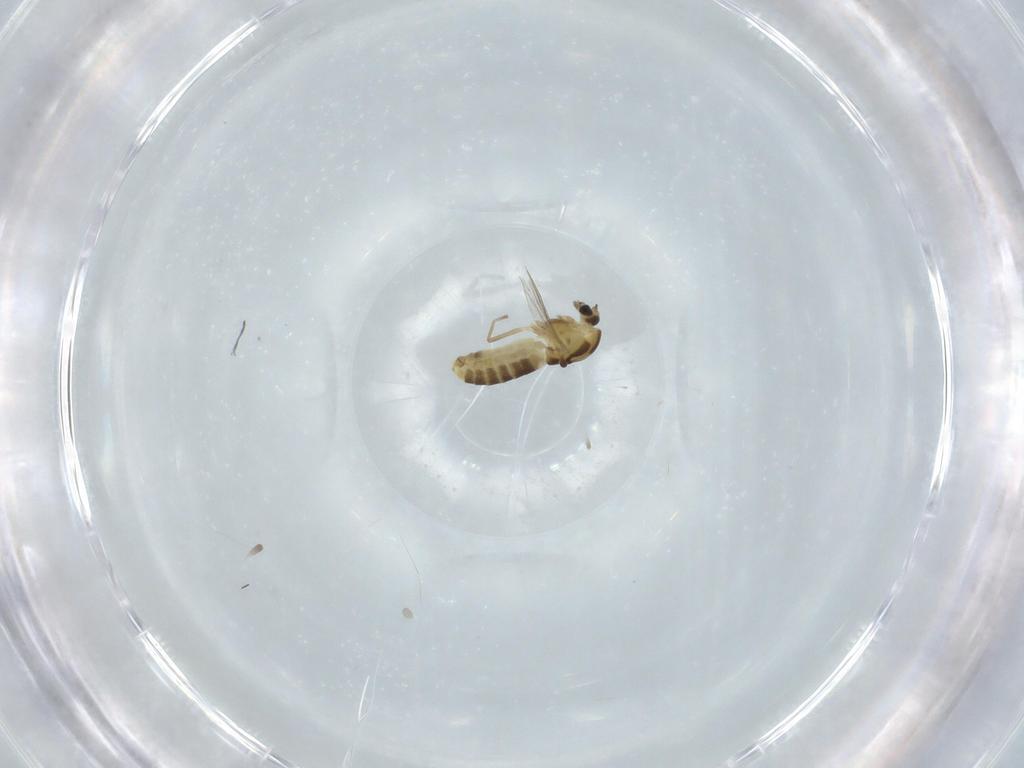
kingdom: Animalia
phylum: Arthropoda
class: Insecta
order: Diptera
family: Chironomidae
